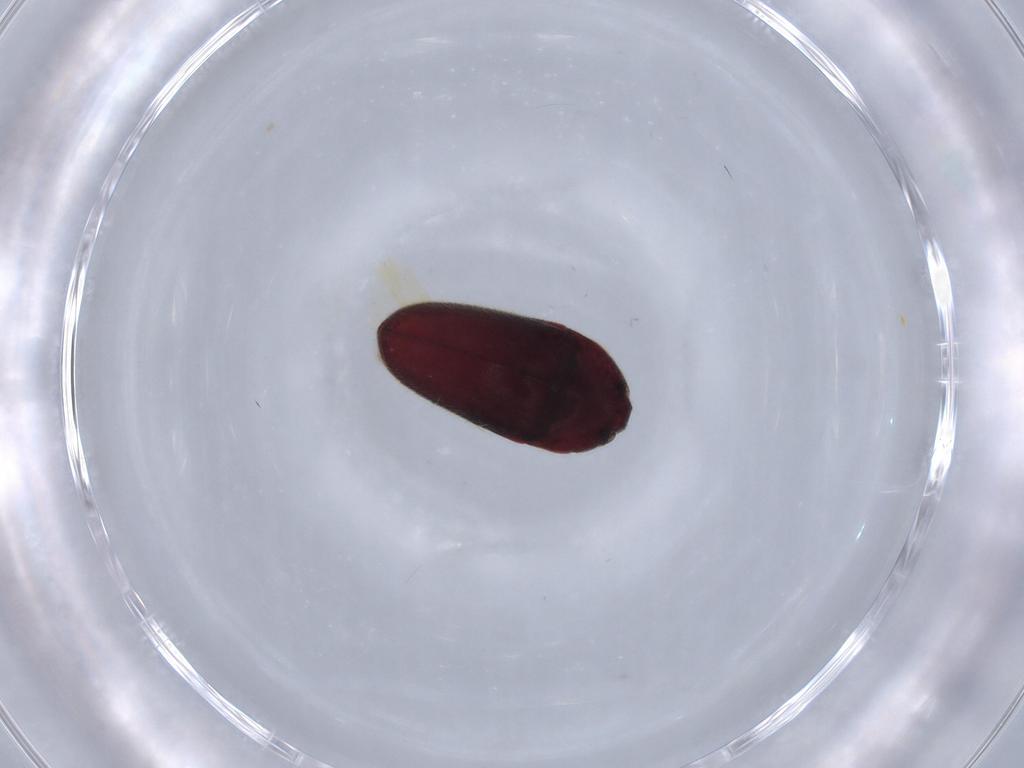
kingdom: Animalia
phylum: Arthropoda
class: Insecta
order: Coleoptera
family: Throscidae
